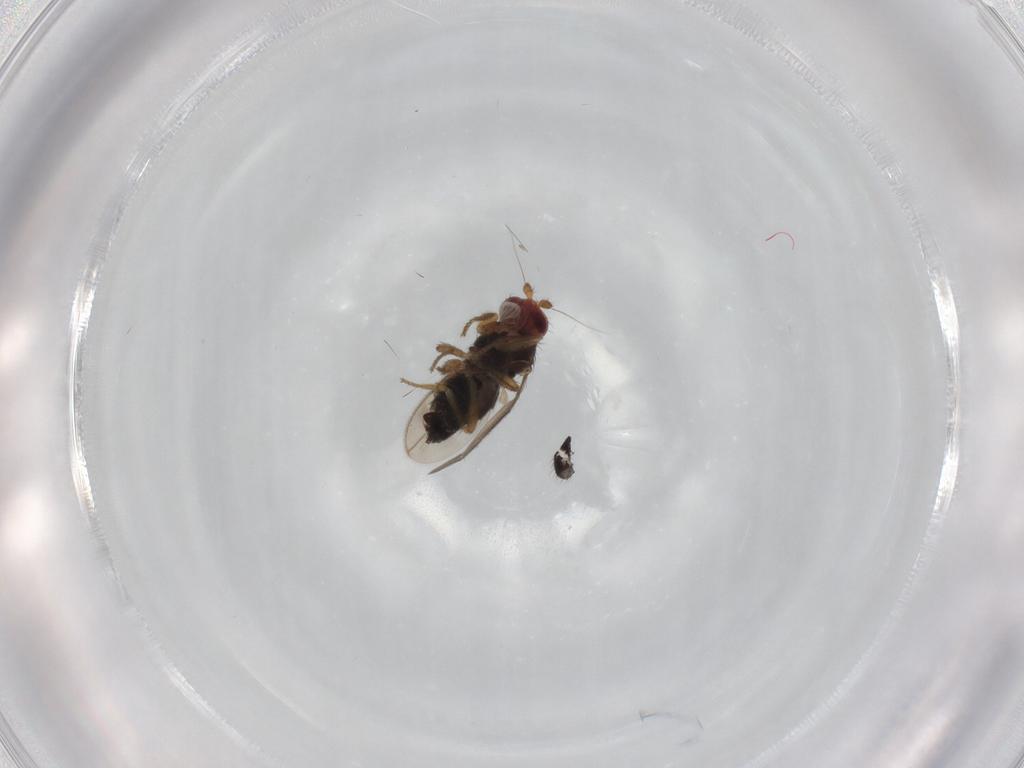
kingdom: Animalia
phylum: Arthropoda
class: Insecta
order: Diptera
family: Sphaeroceridae
